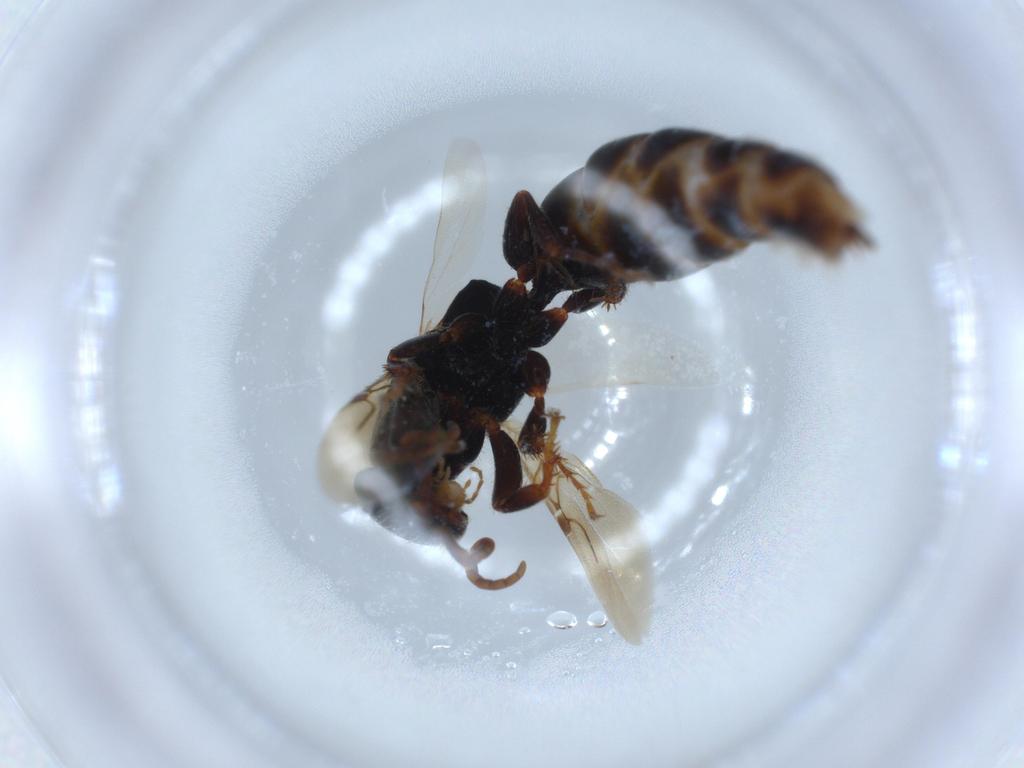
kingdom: Animalia
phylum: Arthropoda
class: Insecta
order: Hymenoptera
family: Bethylidae
